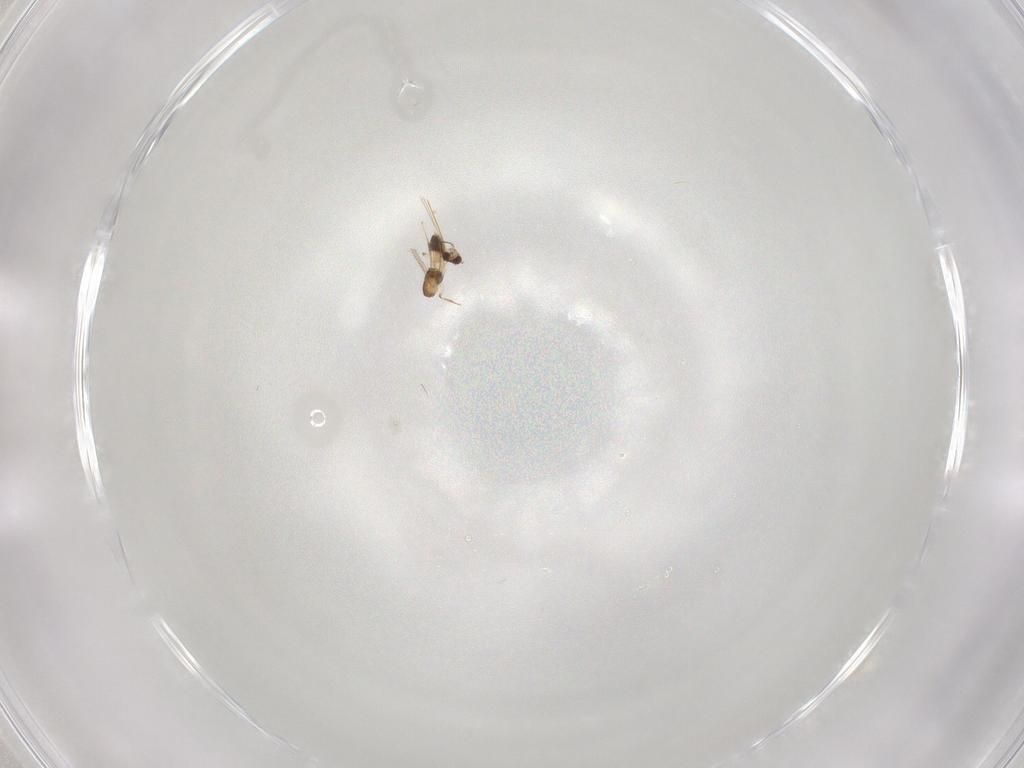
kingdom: Animalia
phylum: Arthropoda
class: Insecta
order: Hymenoptera
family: Mymaridae
